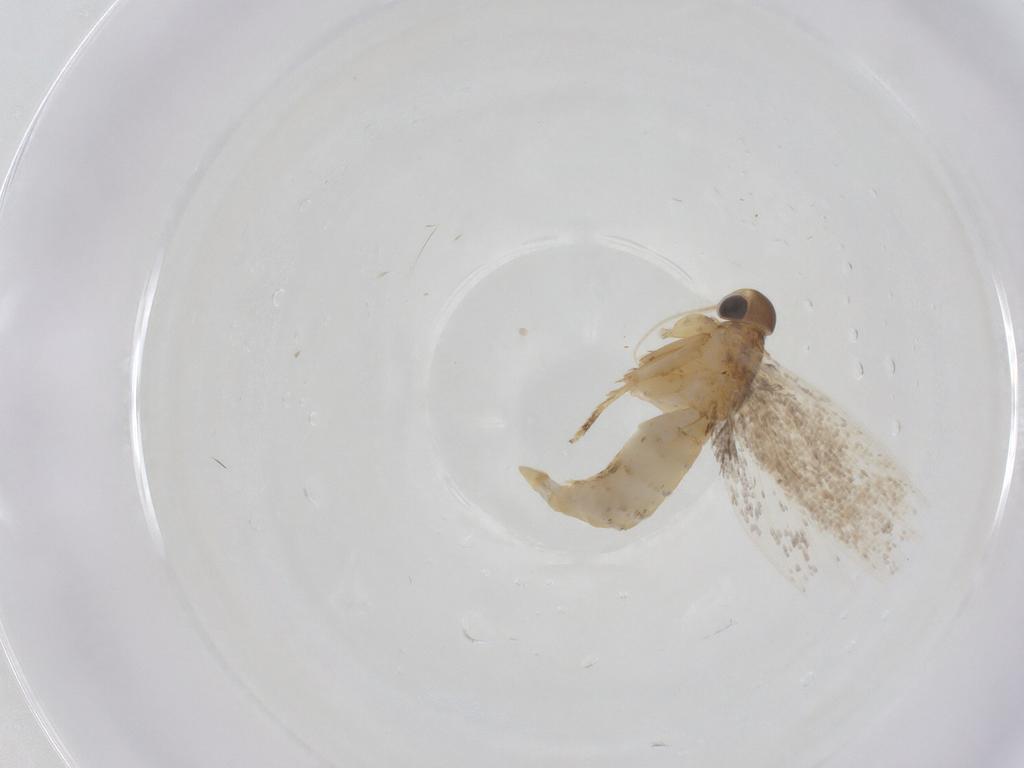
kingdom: Animalia
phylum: Arthropoda
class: Insecta
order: Lepidoptera
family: Oecophoridae
